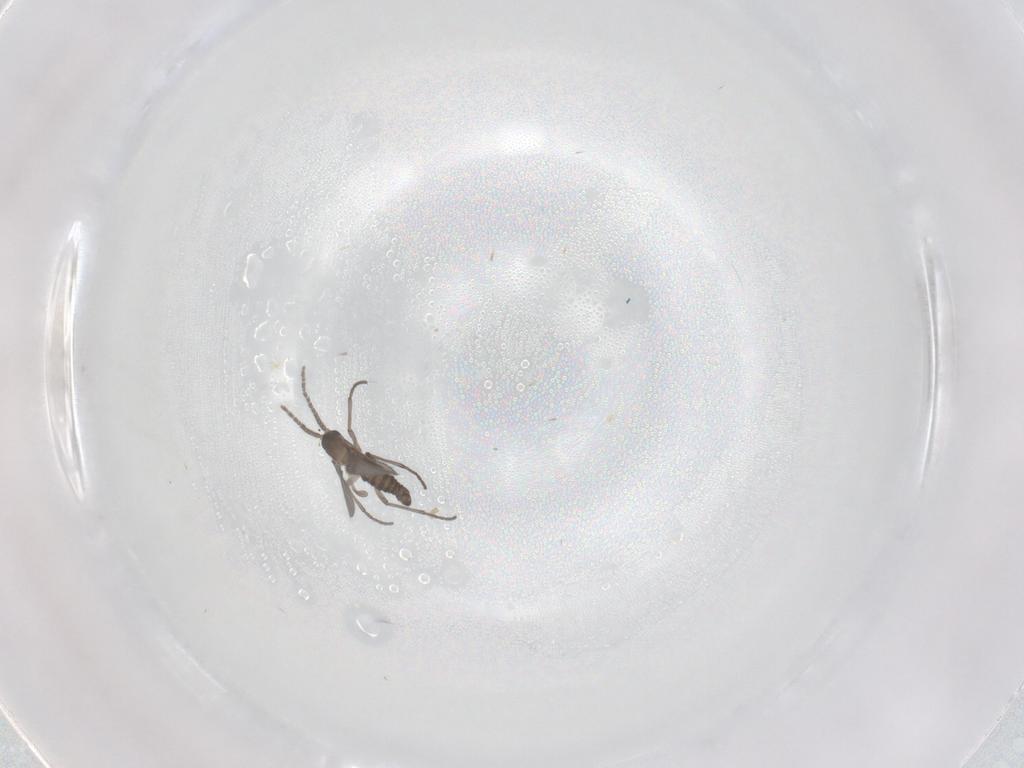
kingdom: Animalia
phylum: Arthropoda
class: Insecta
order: Diptera
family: Sciaridae
